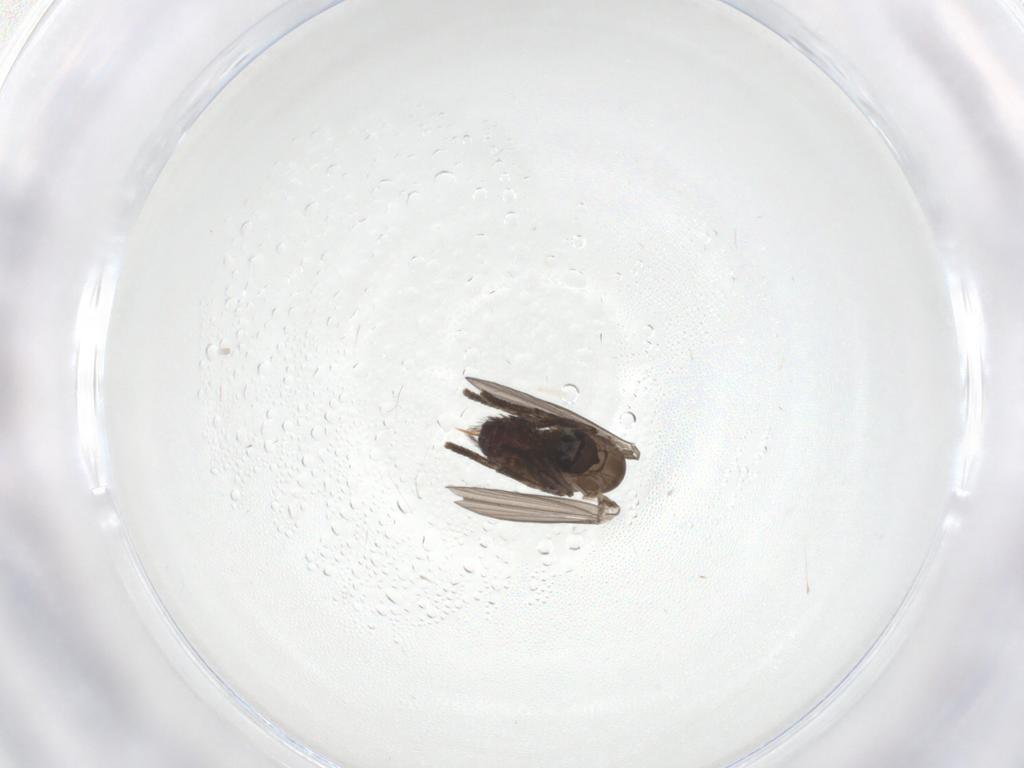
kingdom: Animalia
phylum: Arthropoda
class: Insecta
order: Diptera
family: Psychodidae
